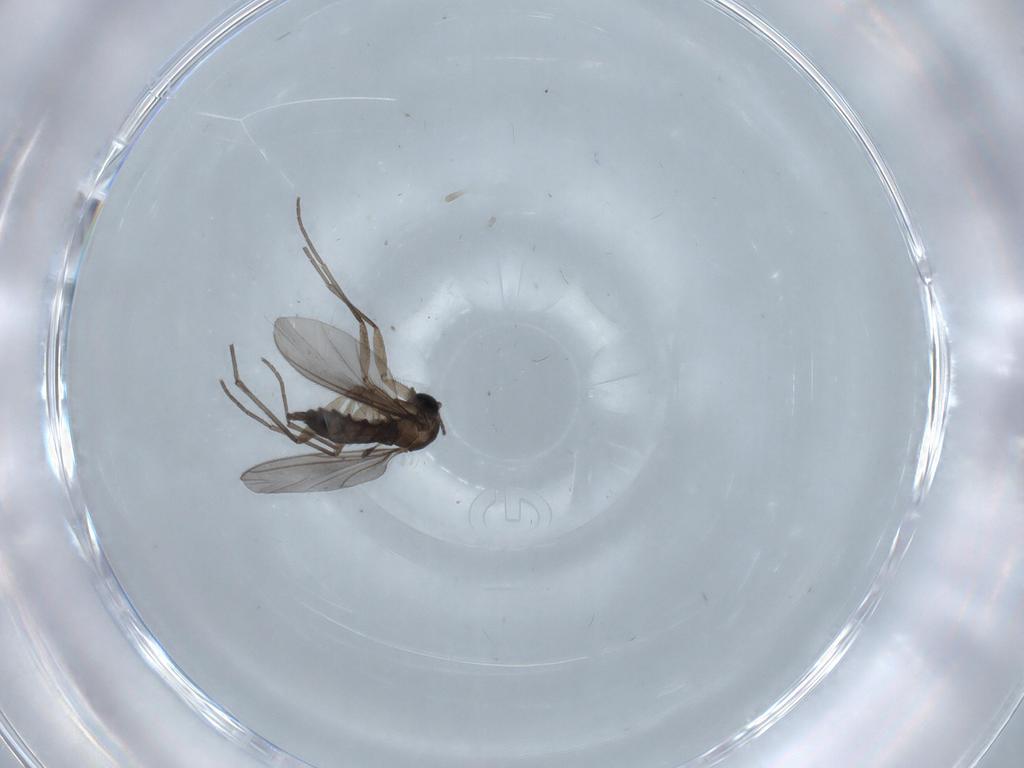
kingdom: Animalia
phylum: Arthropoda
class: Insecta
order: Diptera
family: Sciaridae
